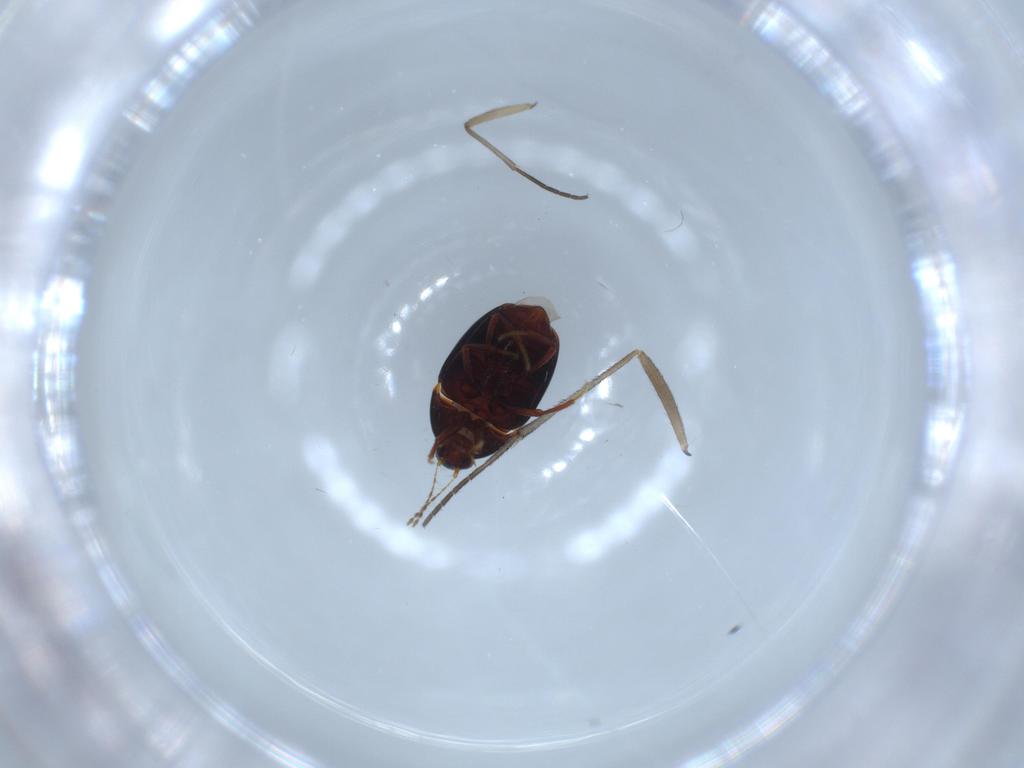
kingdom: Animalia
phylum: Arthropoda
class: Insecta
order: Coleoptera
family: Staphylinidae
